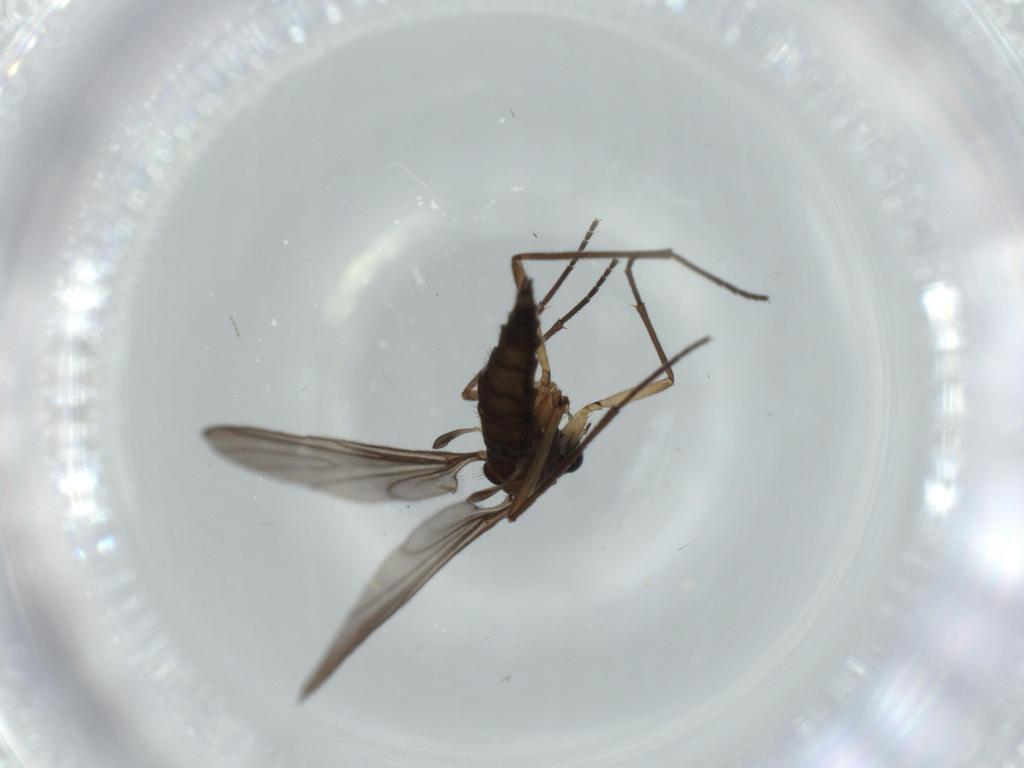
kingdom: Animalia
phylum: Arthropoda
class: Insecta
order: Diptera
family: Sciaridae
